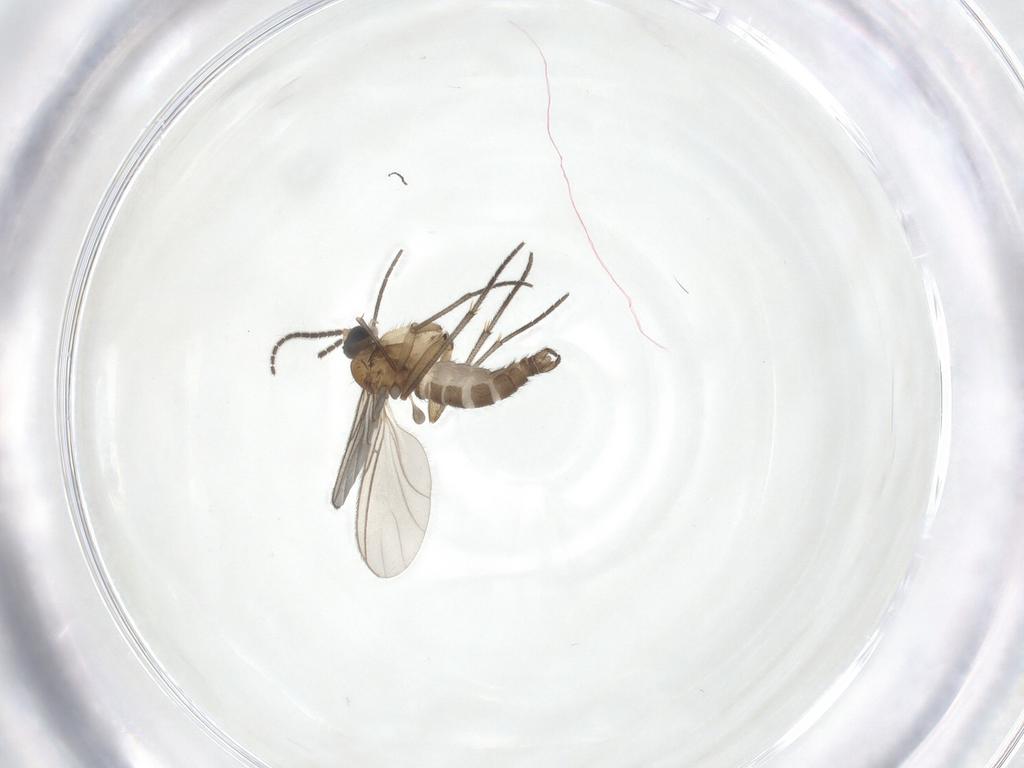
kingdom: Animalia
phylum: Arthropoda
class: Insecta
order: Diptera
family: Sciaridae
